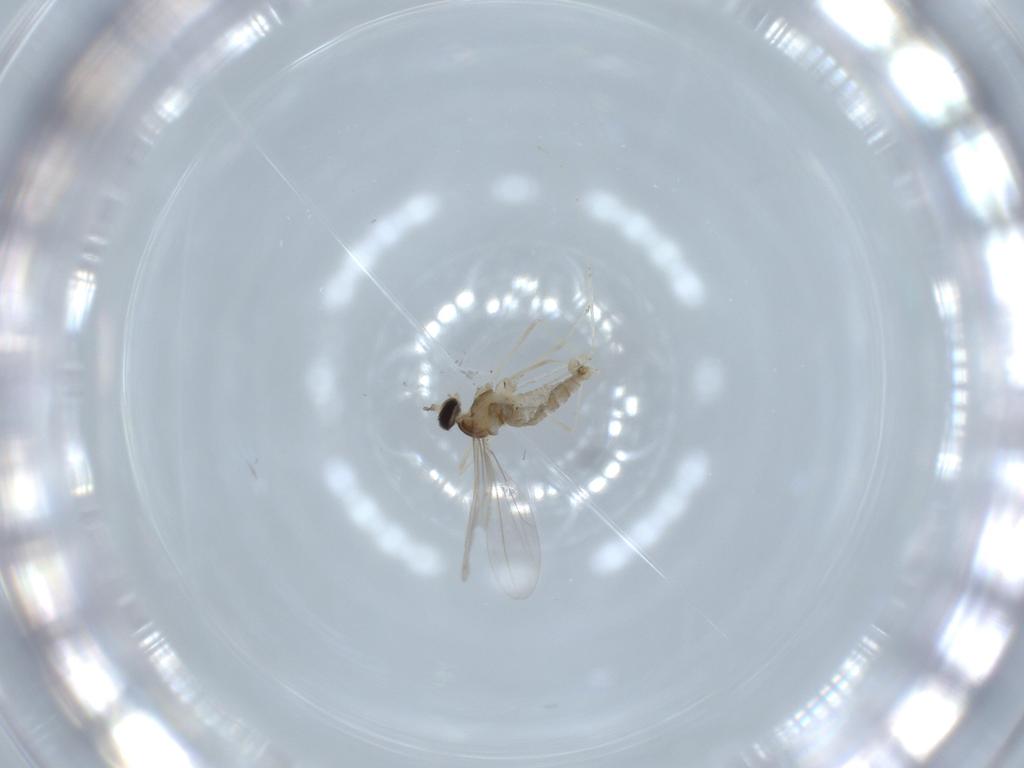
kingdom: Animalia
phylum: Arthropoda
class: Insecta
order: Diptera
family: Cecidomyiidae
